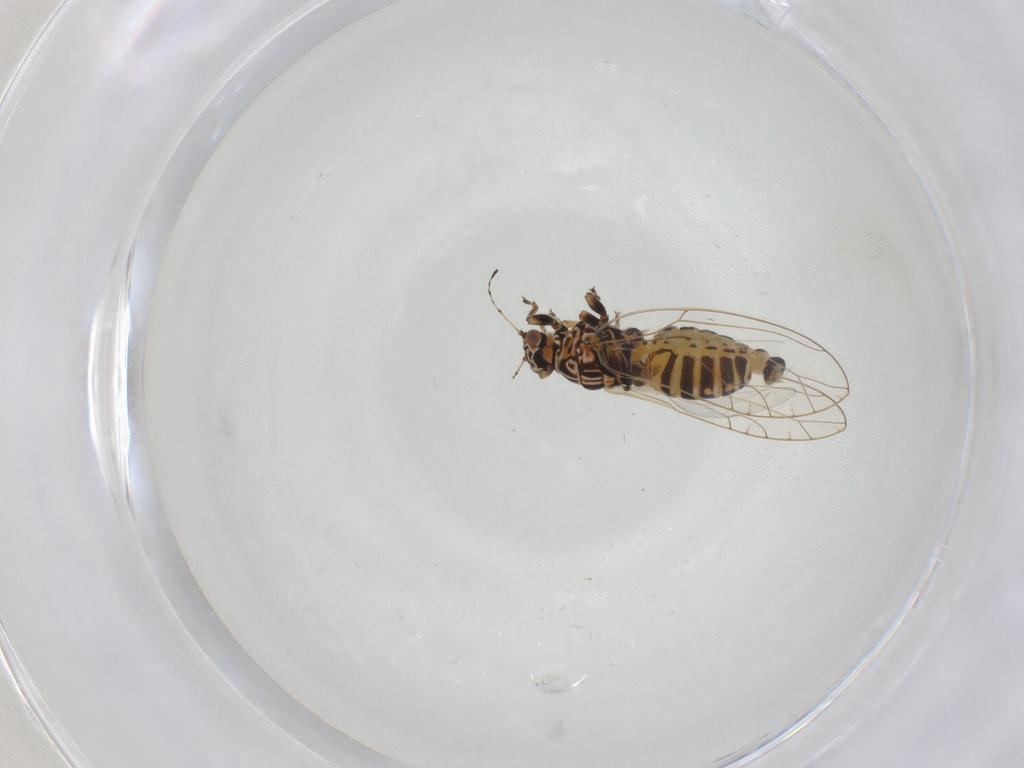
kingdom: Animalia
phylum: Arthropoda
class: Insecta
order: Hemiptera
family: Triozidae
